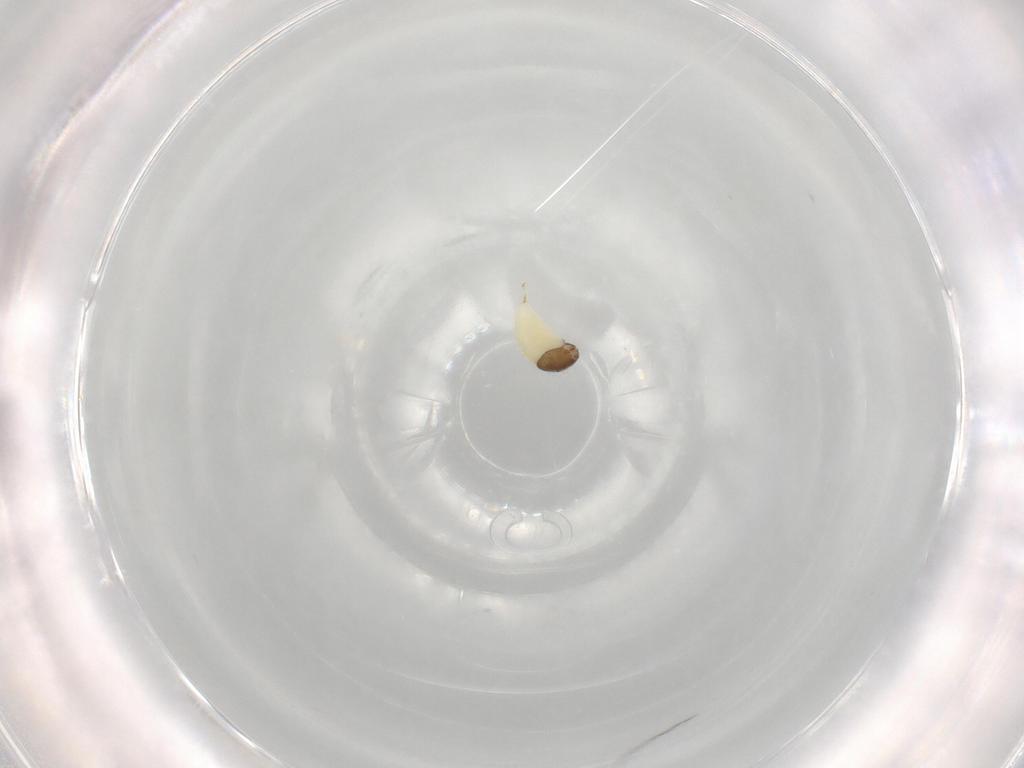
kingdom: Animalia
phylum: Arthropoda
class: Insecta
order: Hymenoptera
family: Ichneumonidae
